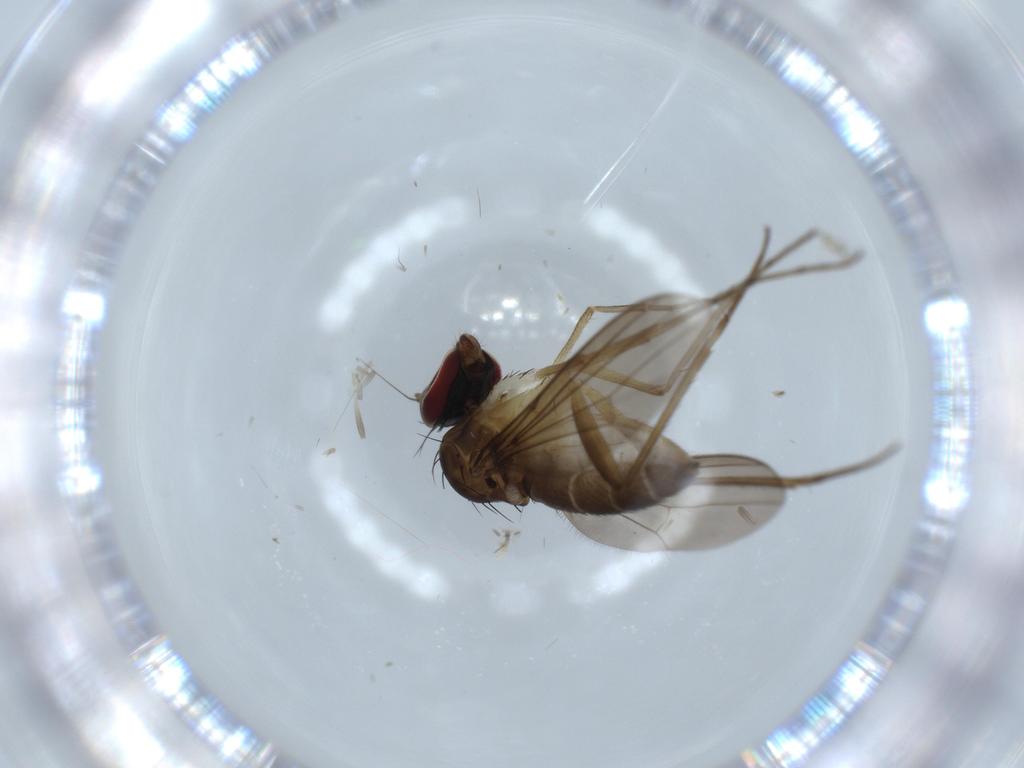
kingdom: Animalia
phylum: Arthropoda
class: Insecta
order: Diptera
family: Dolichopodidae
